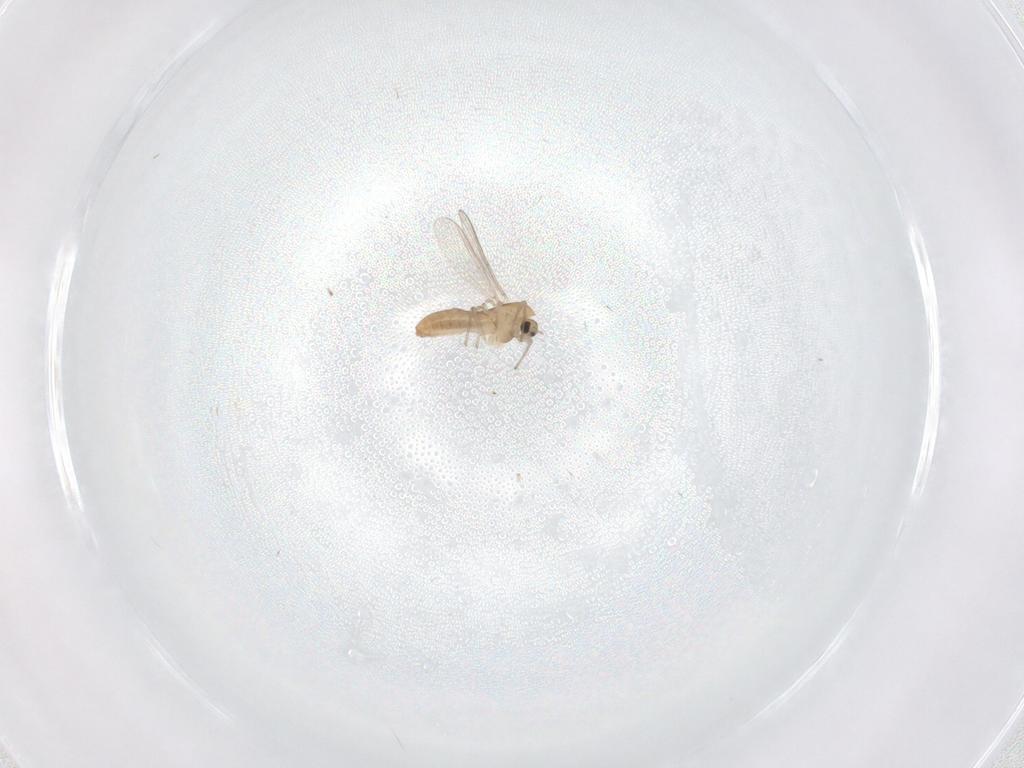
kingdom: Animalia
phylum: Arthropoda
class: Insecta
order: Diptera
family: Chironomidae
